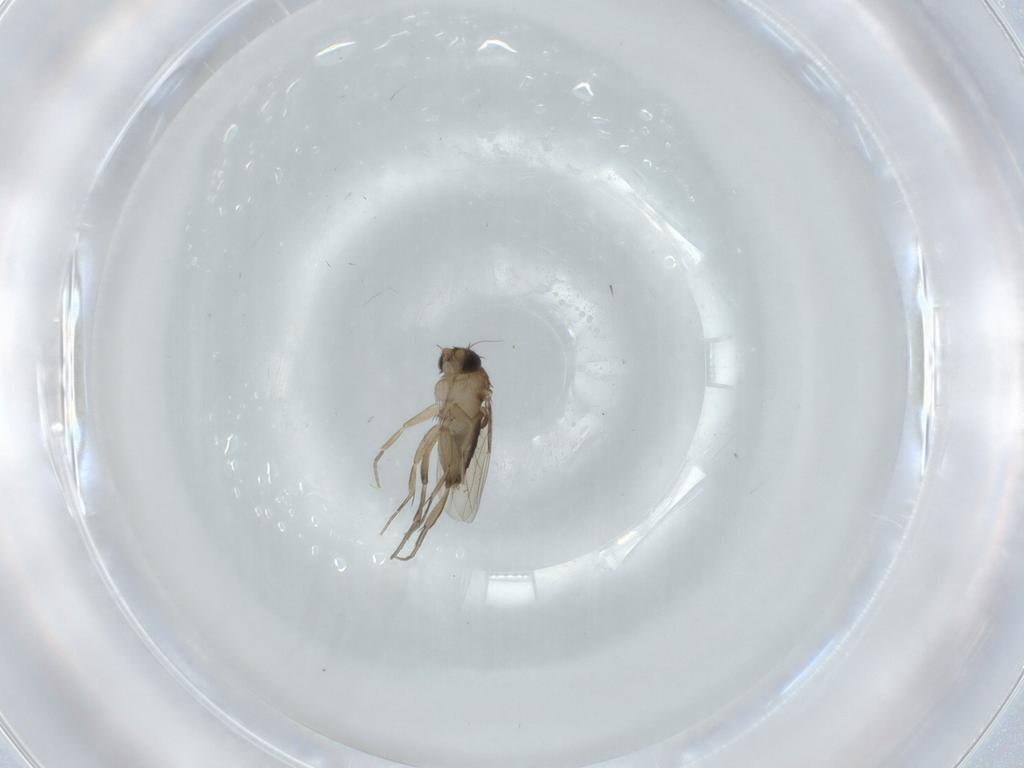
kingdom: Animalia
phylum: Arthropoda
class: Insecta
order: Diptera
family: Phoridae
